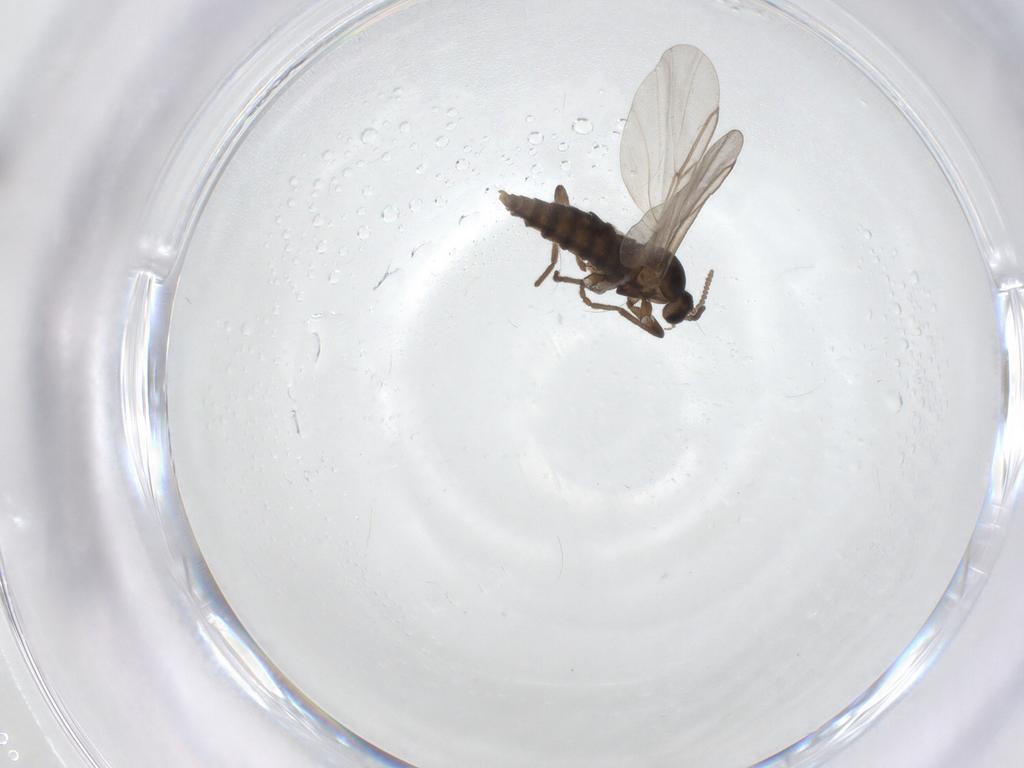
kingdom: Animalia
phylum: Arthropoda
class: Insecta
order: Diptera
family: Cecidomyiidae
